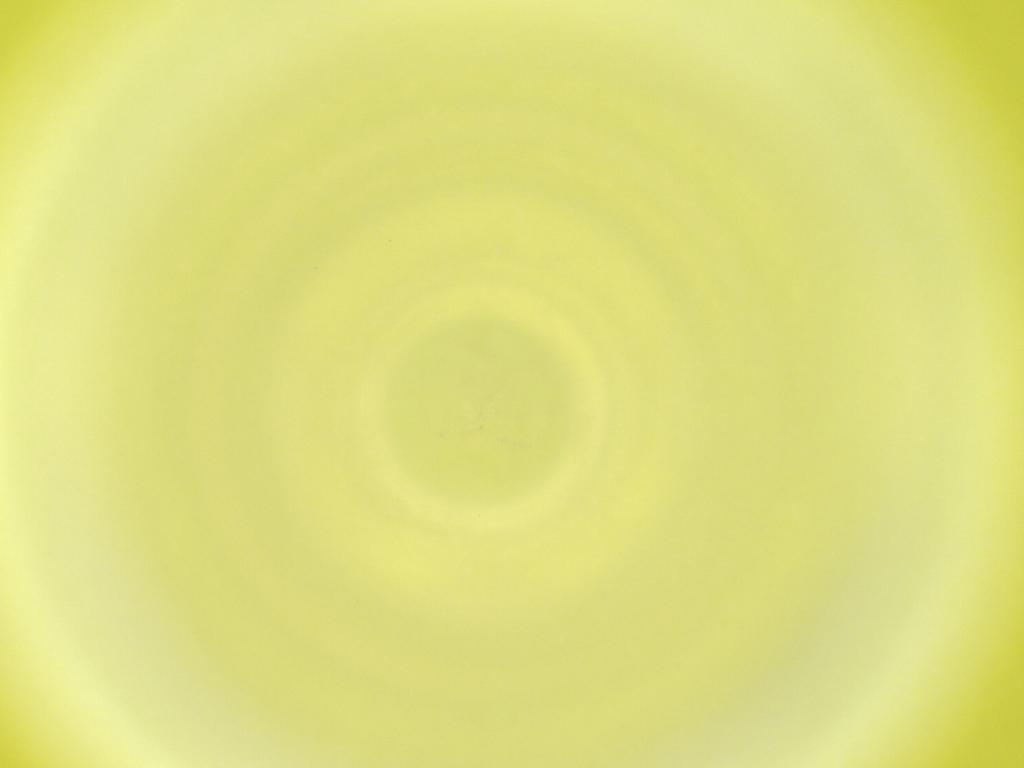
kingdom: Animalia
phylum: Arthropoda
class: Insecta
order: Diptera
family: Cecidomyiidae
